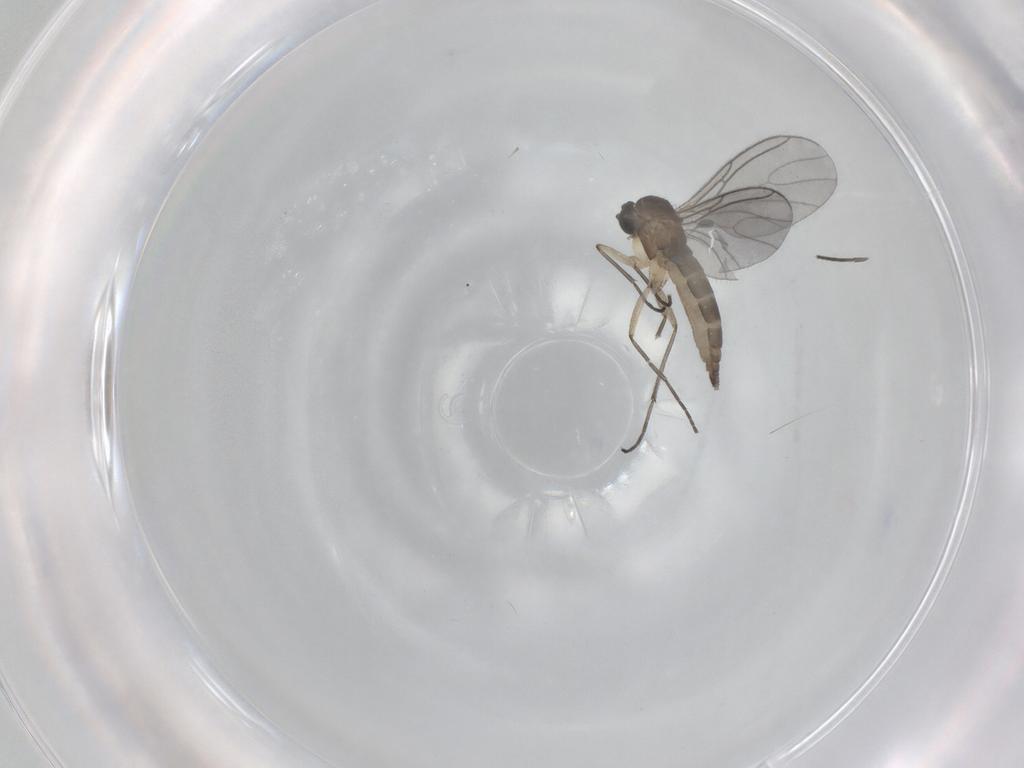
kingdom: Animalia
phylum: Arthropoda
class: Insecta
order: Diptera
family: Sciaridae
